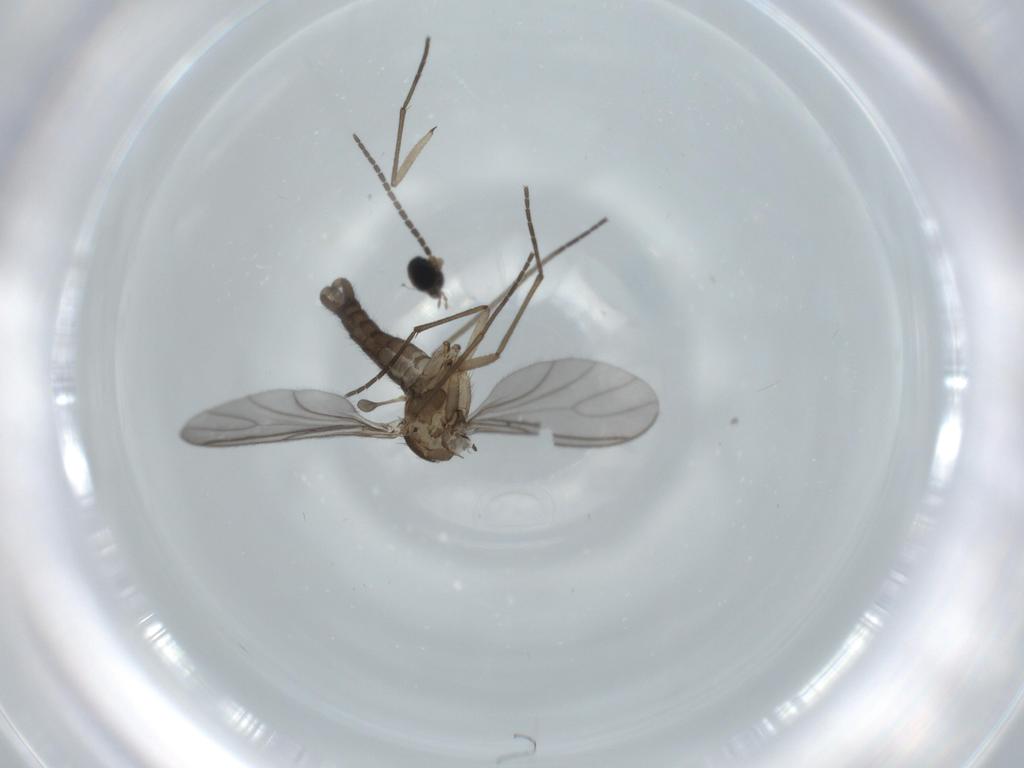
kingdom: Animalia
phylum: Arthropoda
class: Insecta
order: Diptera
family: Sciaridae
